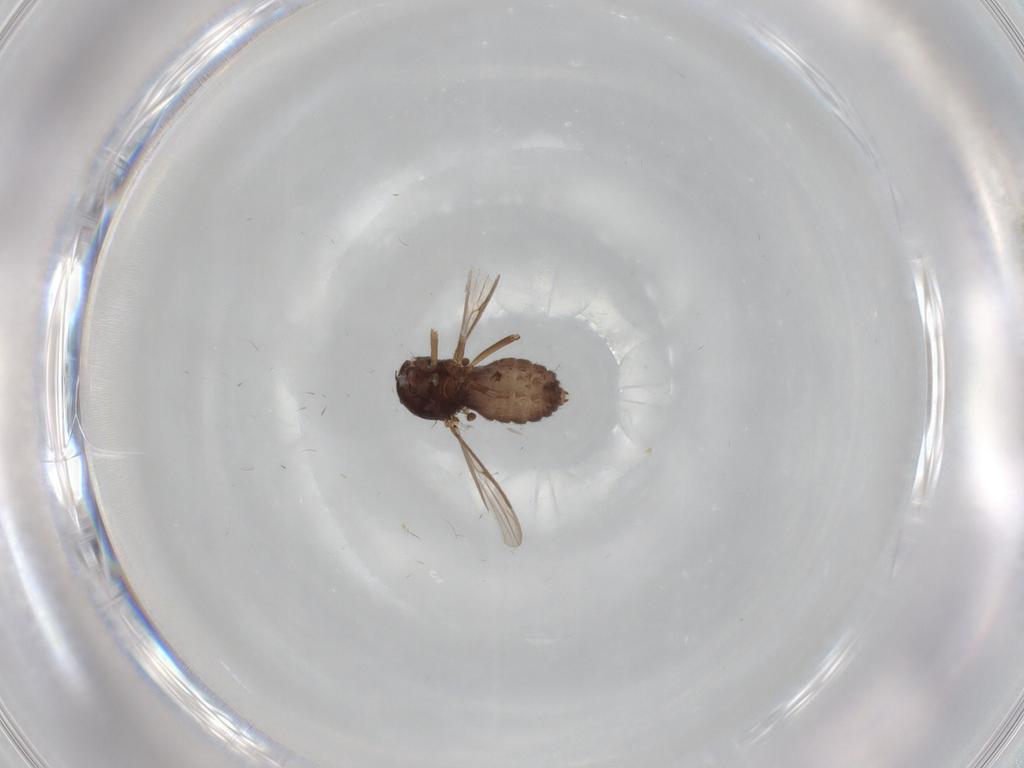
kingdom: Animalia
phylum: Arthropoda
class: Insecta
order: Diptera
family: Ceratopogonidae
